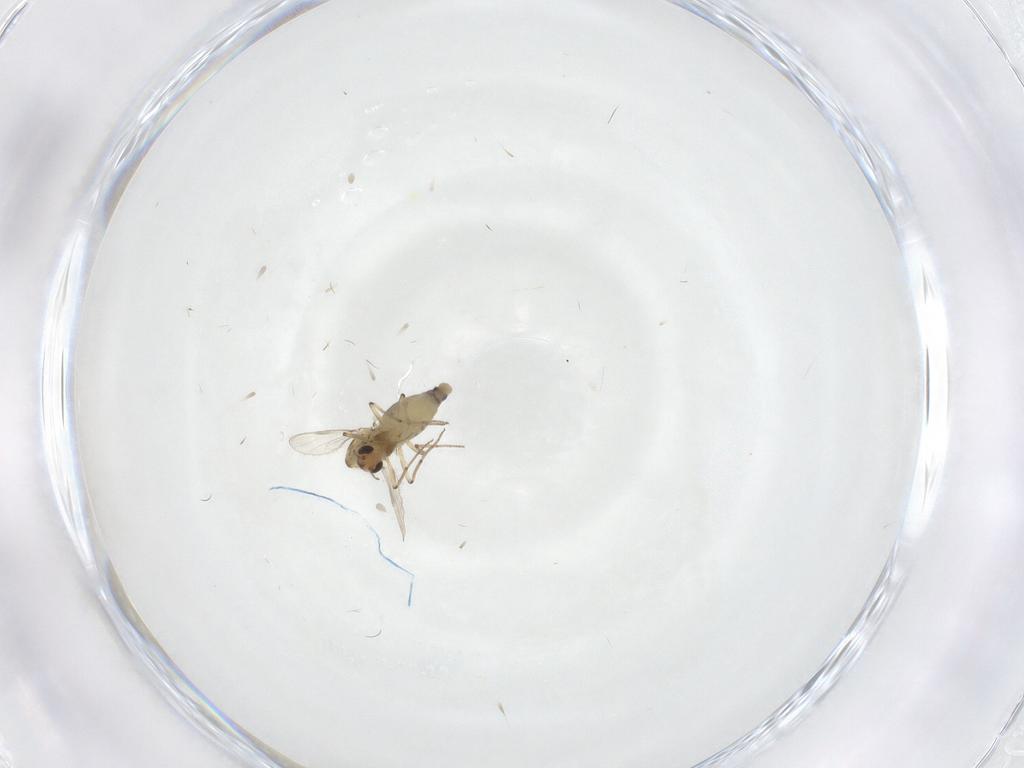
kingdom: Animalia
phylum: Arthropoda
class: Insecta
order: Diptera
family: Chironomidae
